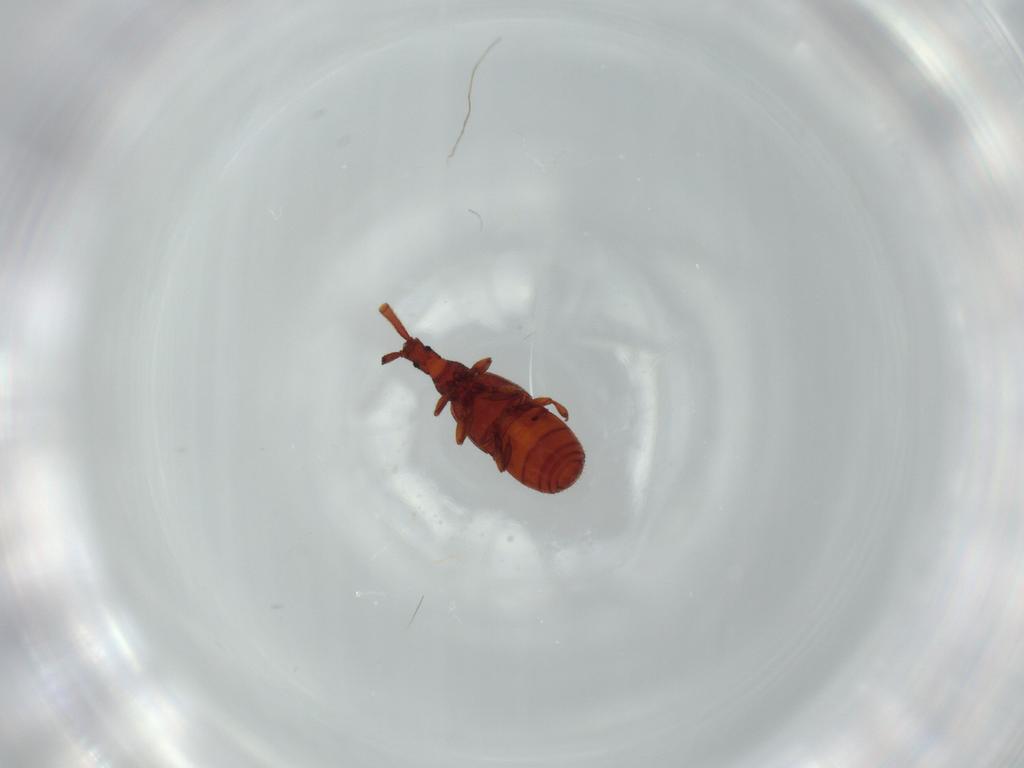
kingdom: Animalia
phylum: Arthropoda
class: Insecta
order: Coleoptera
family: Staphylinidae
